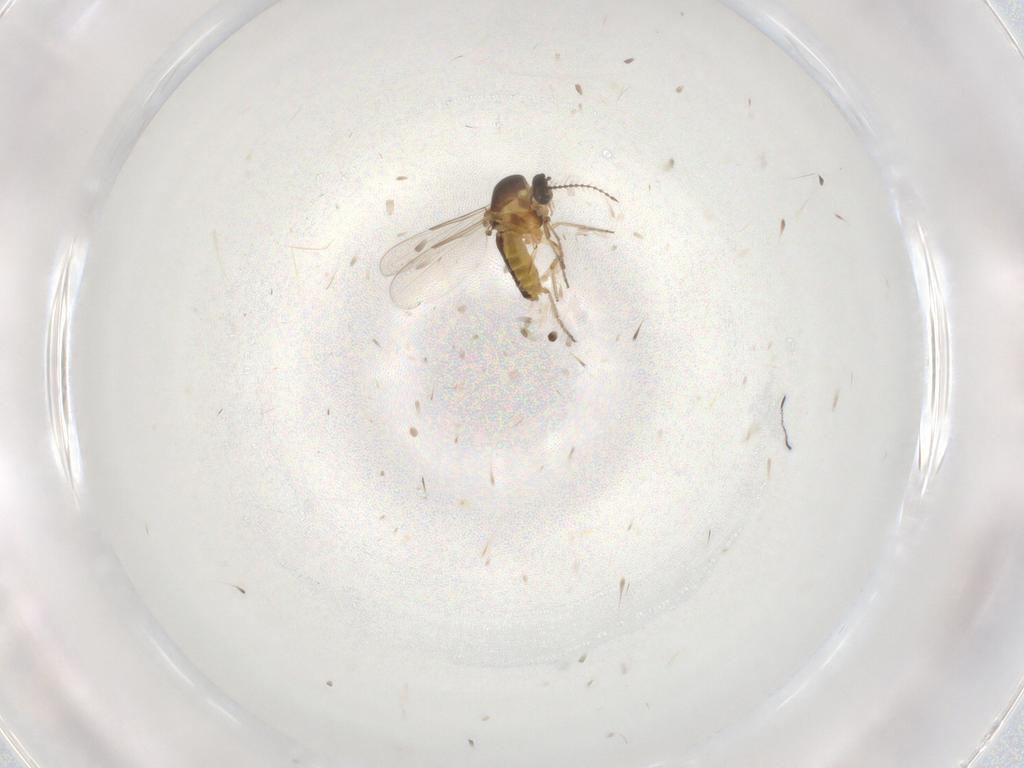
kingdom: Animalia
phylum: Arthropoda
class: Insecta
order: Diptera
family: Ceratopogonidae
